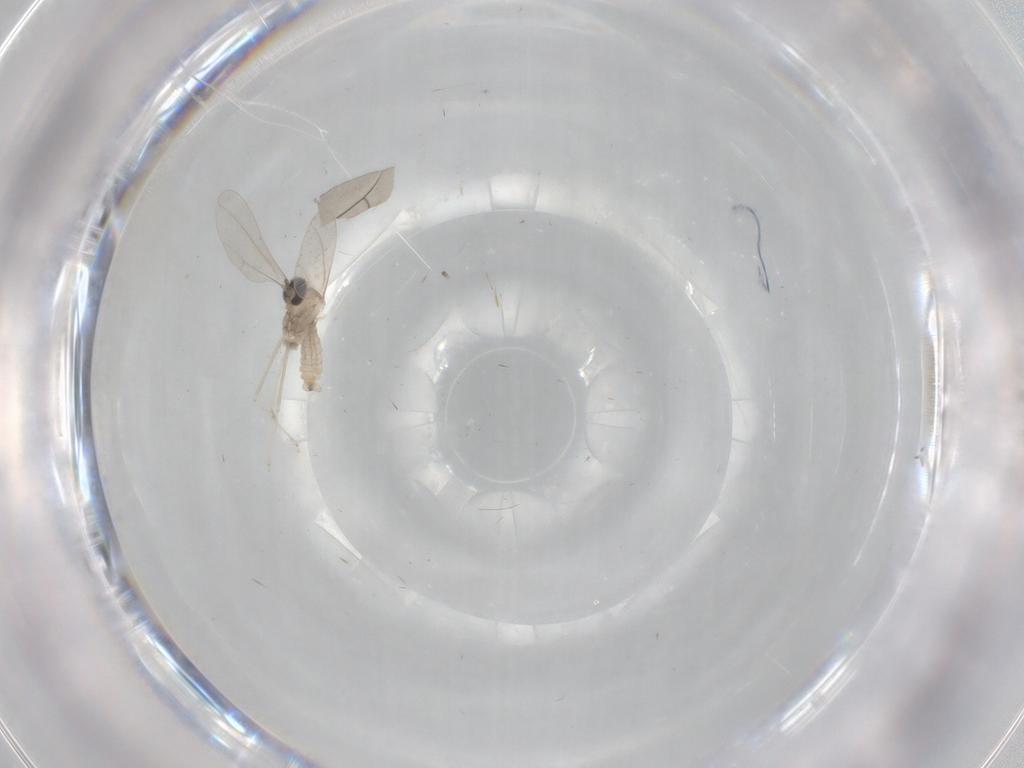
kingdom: Animalia
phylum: Arthropoda
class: Insecta
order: Diptera
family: Cecidomyiidae
